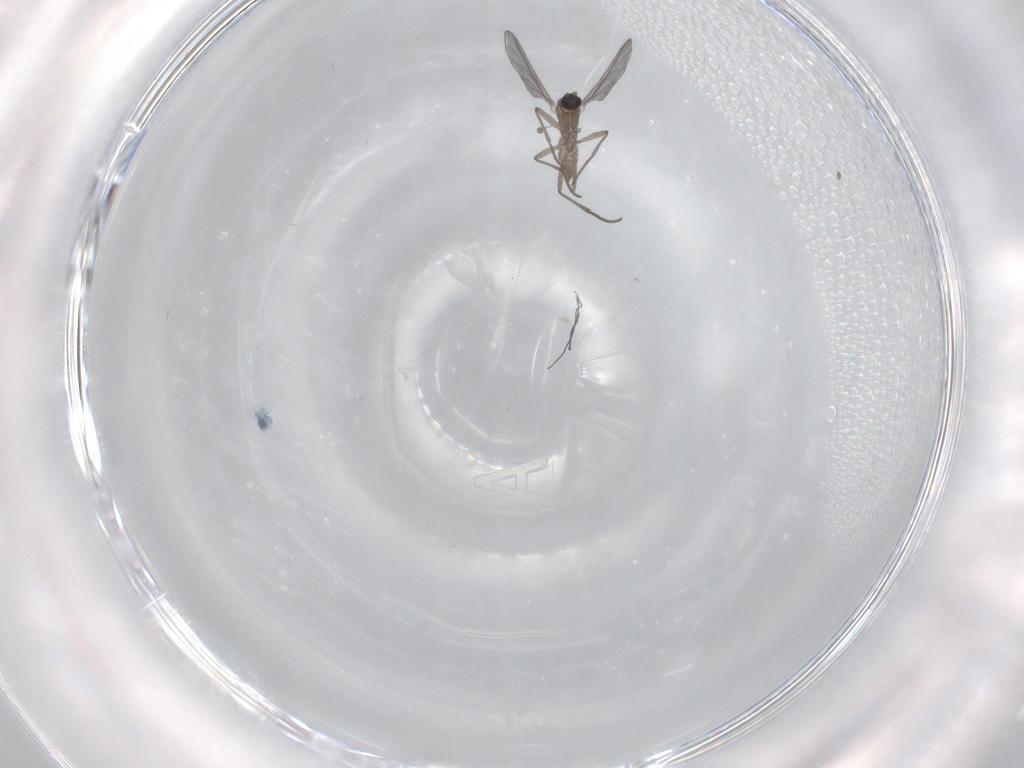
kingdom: Animalia
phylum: Arthropoda
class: Insecta
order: Diptera
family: Sciaridae
